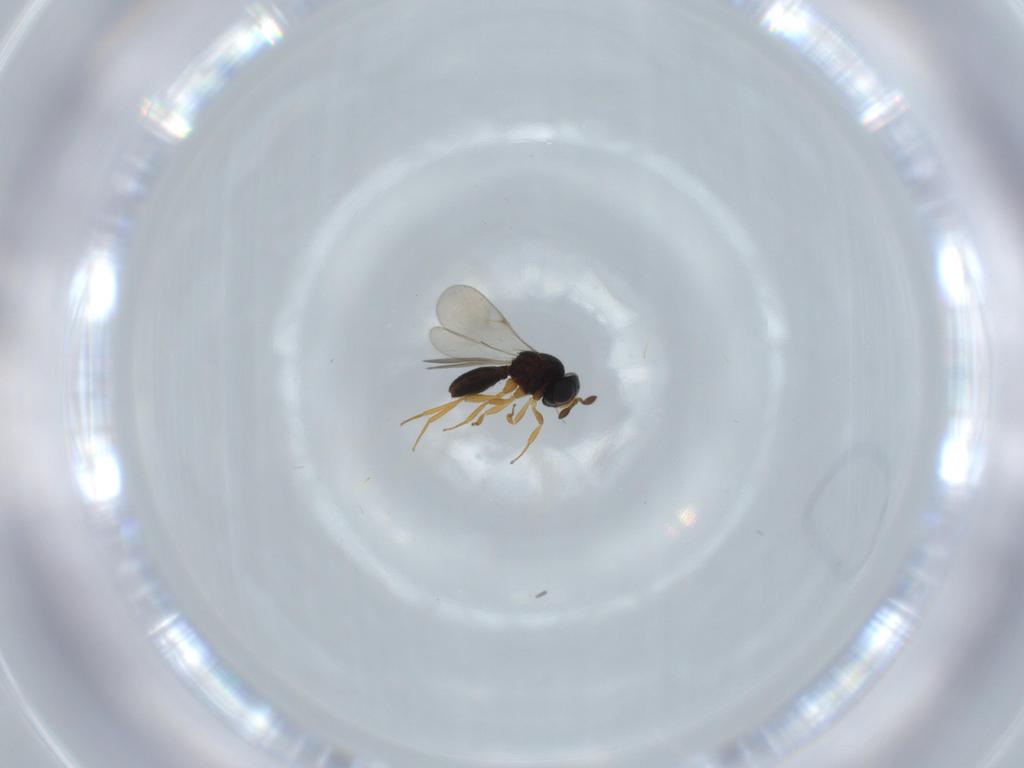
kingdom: Animalia
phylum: Arthropoda
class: Insecta
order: Hymenoptera
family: Scelionidae
